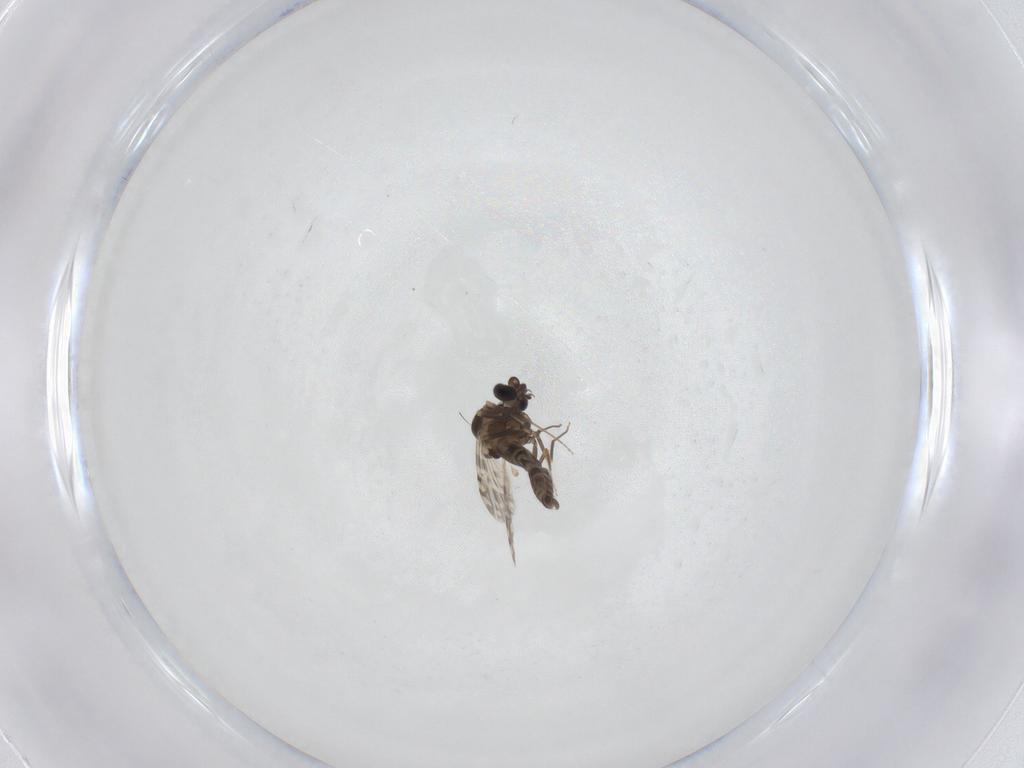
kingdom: Animalia
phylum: Arthropoda
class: Insecta
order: Diptera
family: Ceratopogonidae
